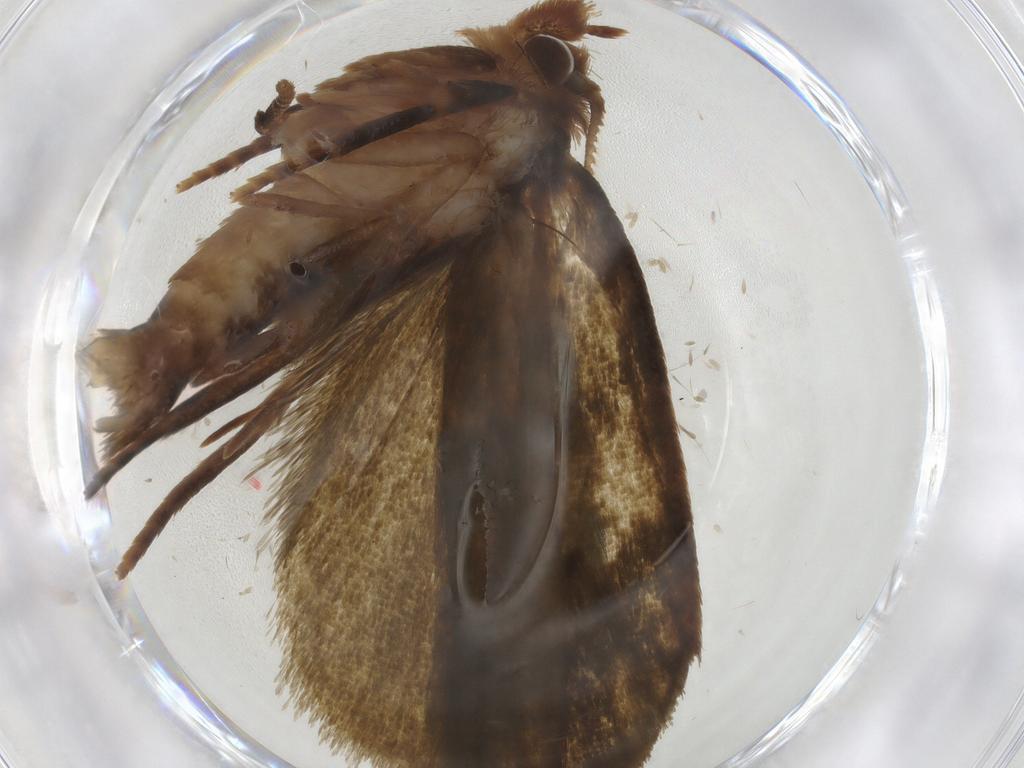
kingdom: Animalia
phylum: Arthropoda
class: Insecta
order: Lepidoptera
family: Geometridae
